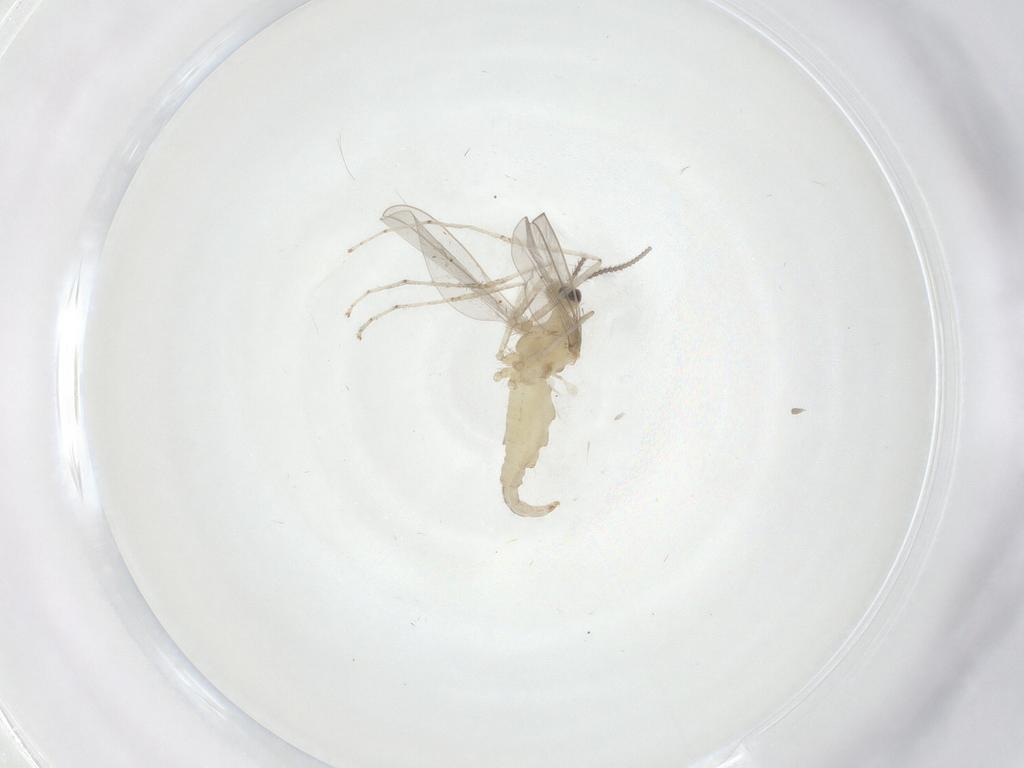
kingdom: Animalia
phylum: Arthropoda
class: Insecta
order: Diptera
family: Cecidomyiidae
